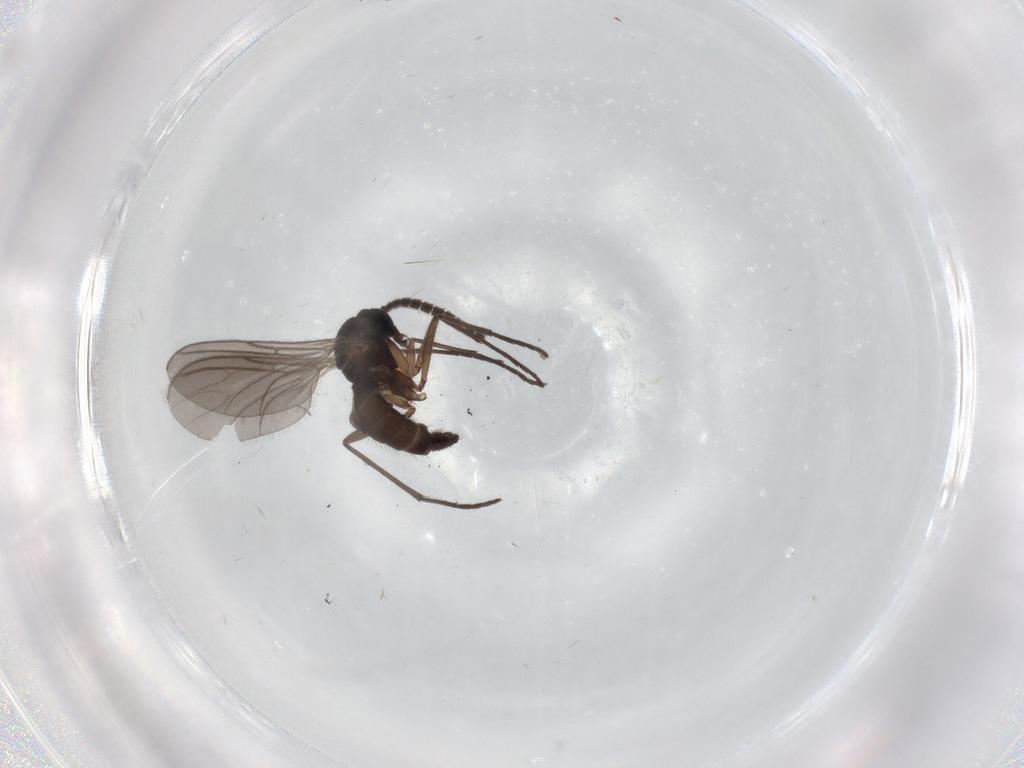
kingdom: Animalia
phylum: Arthropoda
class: Insecta
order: Diptera
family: Sciaridae
